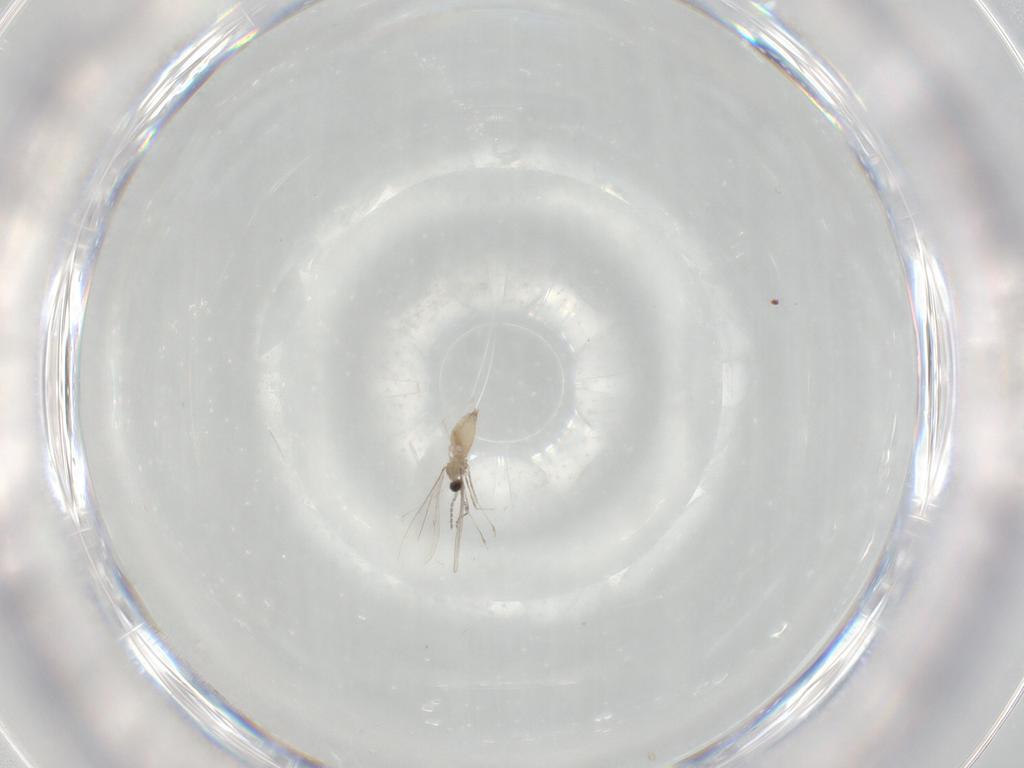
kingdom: Animalia
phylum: Arthropoda
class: Insecta
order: Diptera
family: Cecidomyiidae
